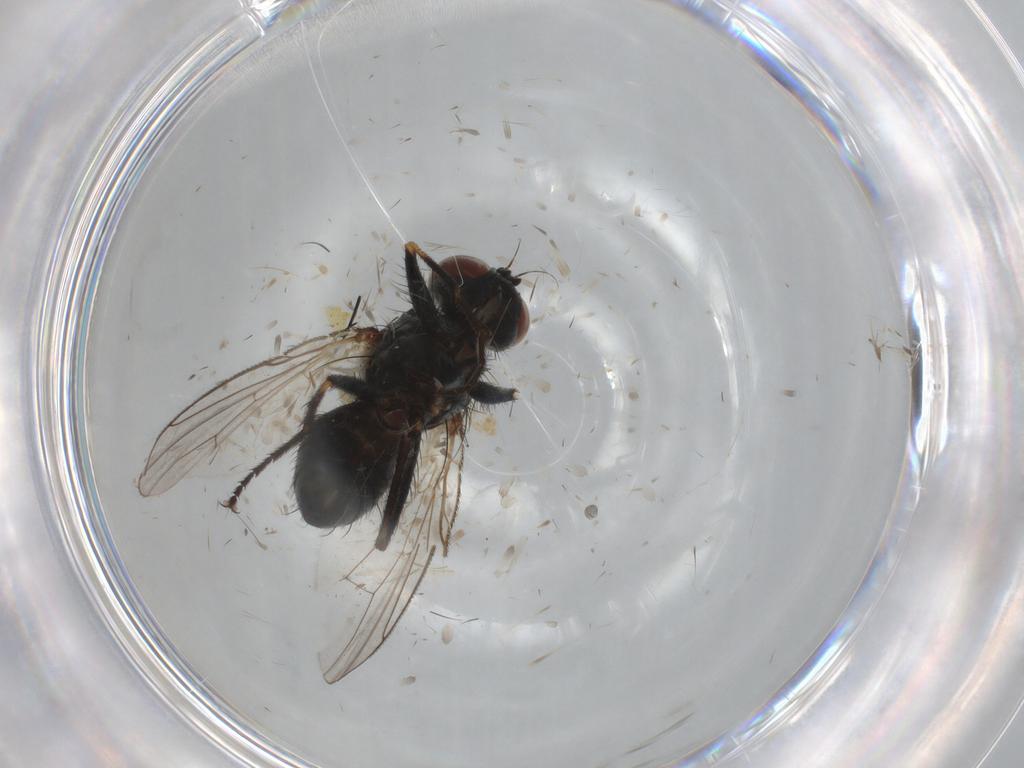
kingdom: Animalia
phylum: Arthropoda
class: Insecta
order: Diptera
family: Muscidae
